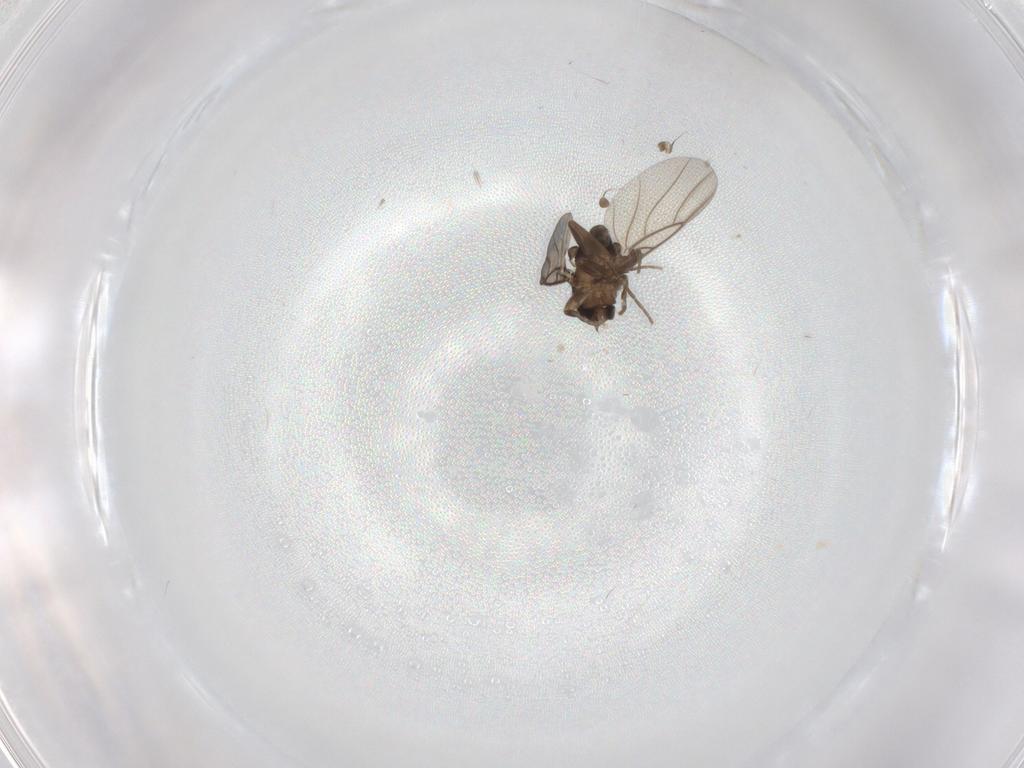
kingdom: Animalia
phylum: Arthropoda
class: Insecta
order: Diptera
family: Phoridae
